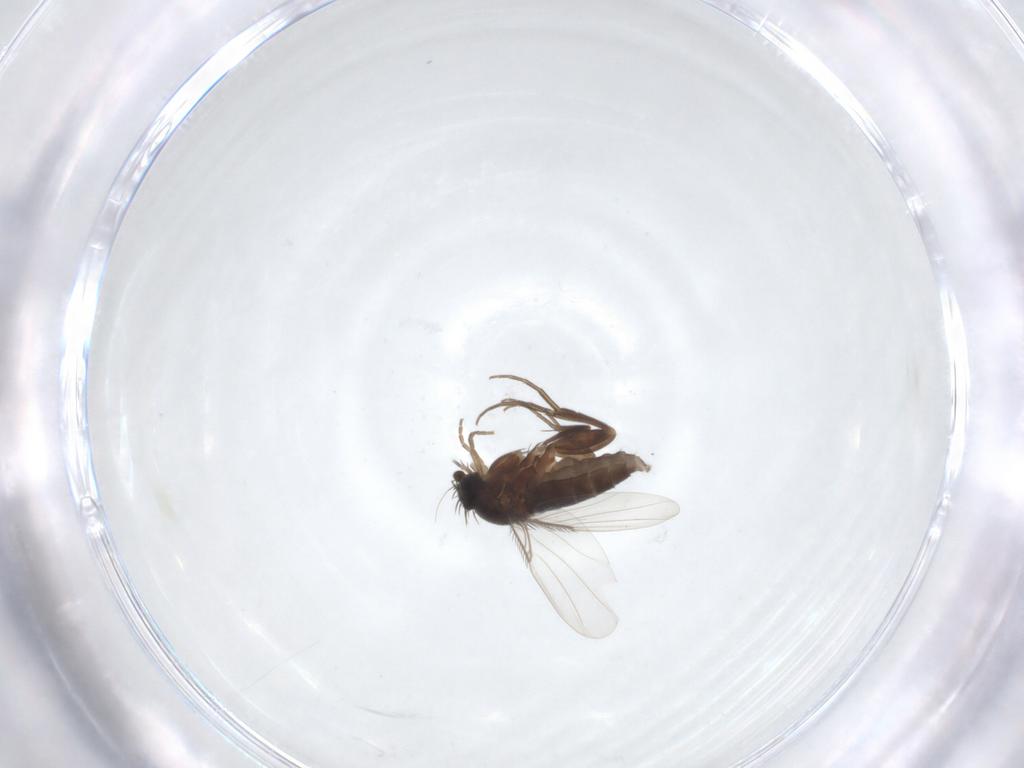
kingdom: Animalia
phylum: Arthropoda
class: Insecta
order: Diptera
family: Phoridae
